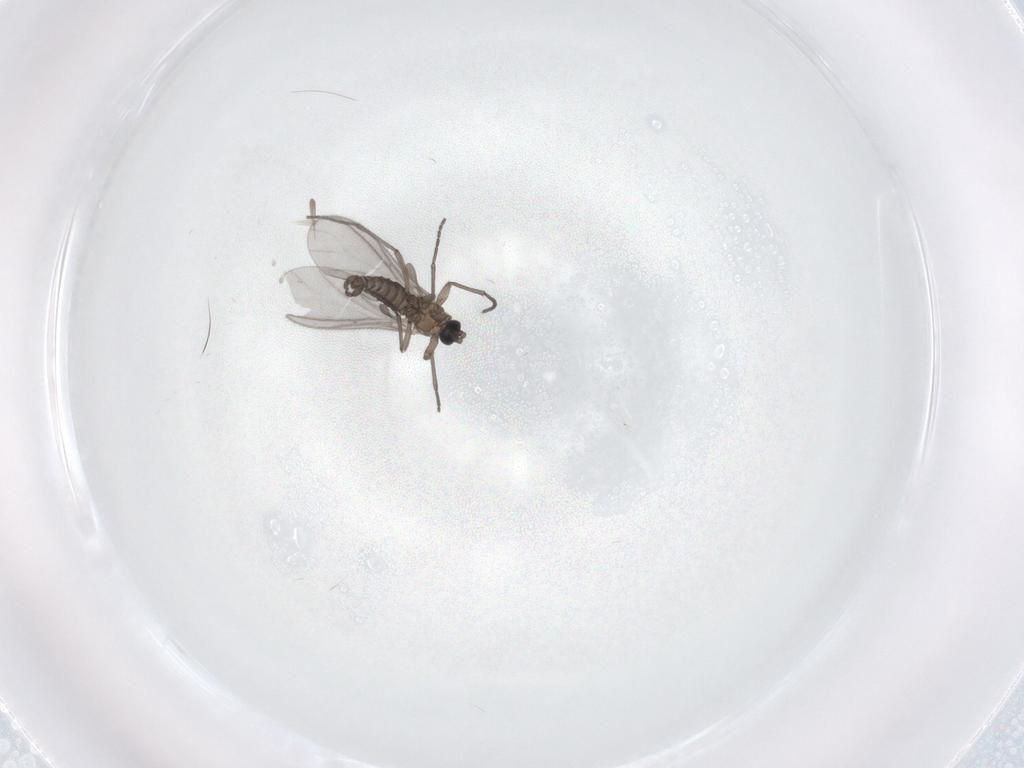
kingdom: Animalia
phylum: Arthropoda
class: Insecta
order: Diptera
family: Sciaridae
